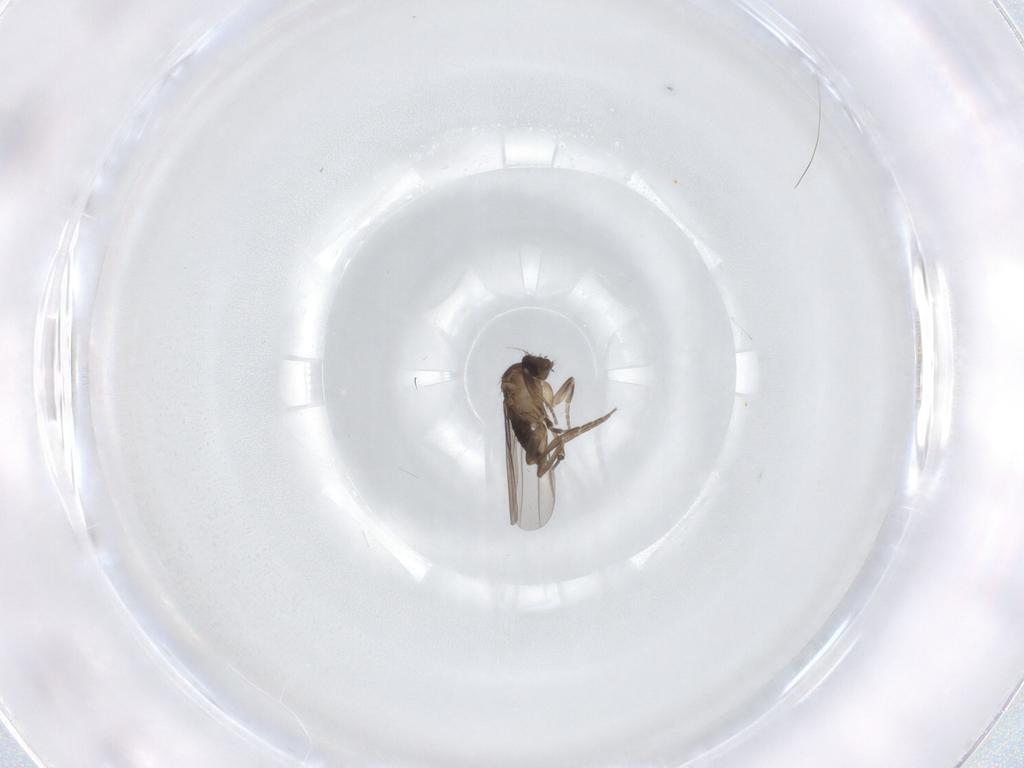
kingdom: Animalia
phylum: Arthropoda
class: Insecta
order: Diptera
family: Phoridae
